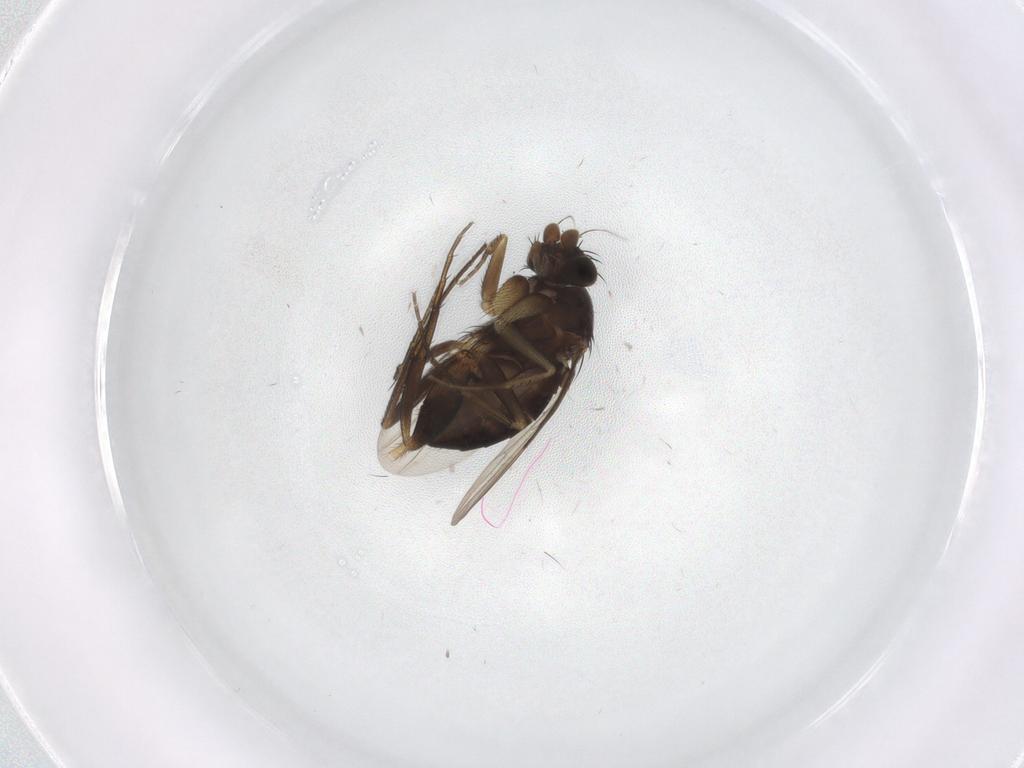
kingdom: Animalia
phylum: Arthropoda
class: Insecta
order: Diptera
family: Phoridae
